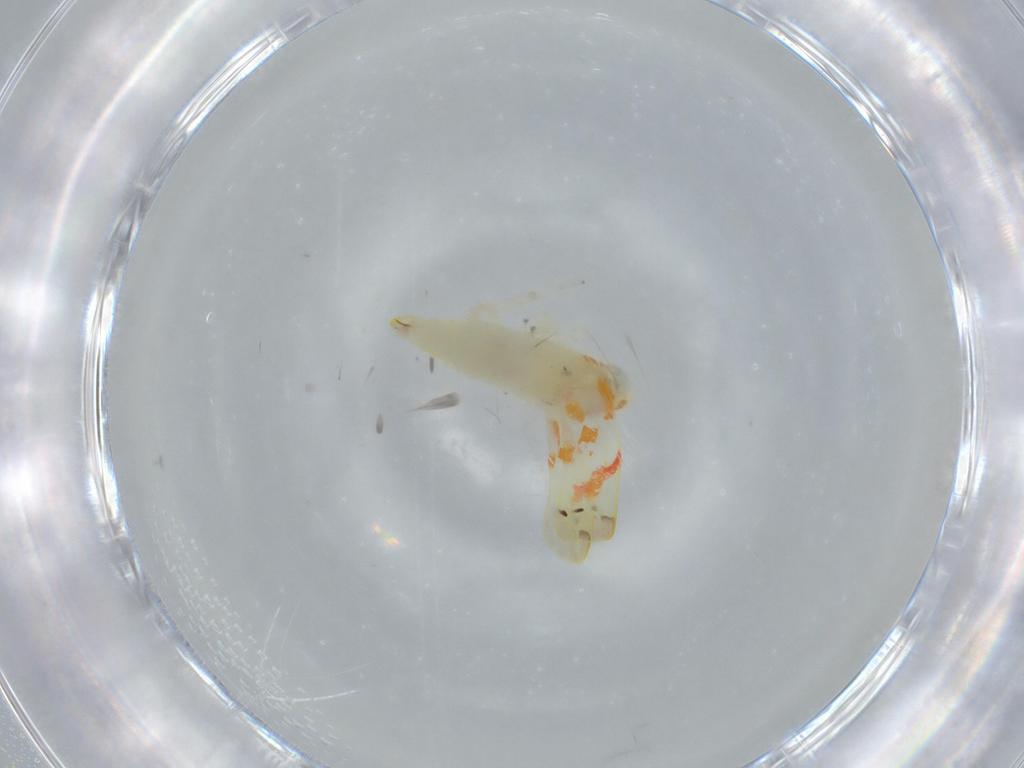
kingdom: Animalia
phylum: Arthropoda
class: Insecta
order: Hemiptera
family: Cicadellidae
